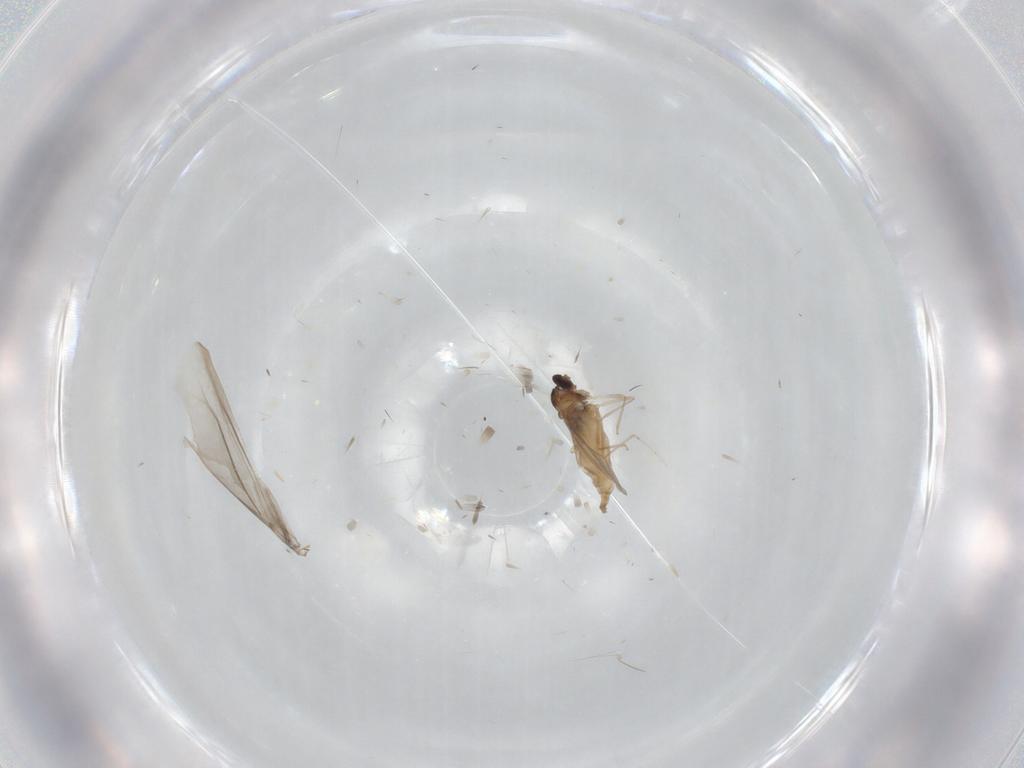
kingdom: Animalia
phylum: Arthropoda
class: Insecta
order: Diptera
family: Cecidomyiidae
